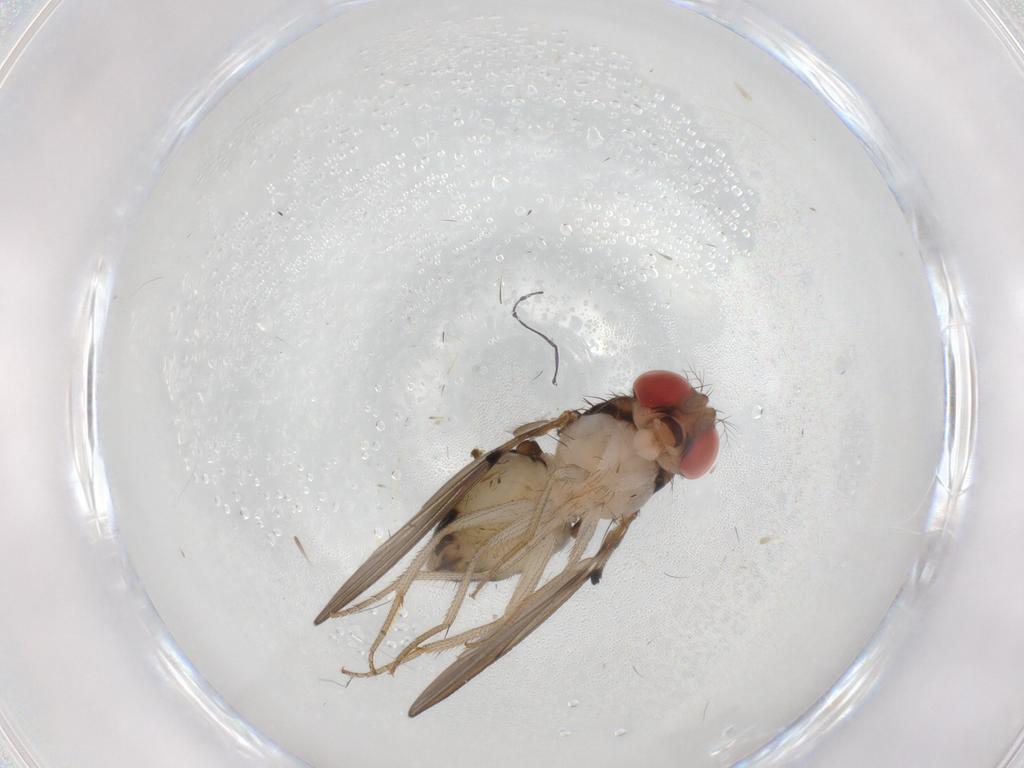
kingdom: Animalia
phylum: Arthropoda
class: Insecta
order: Diptera
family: Drosophilidae
